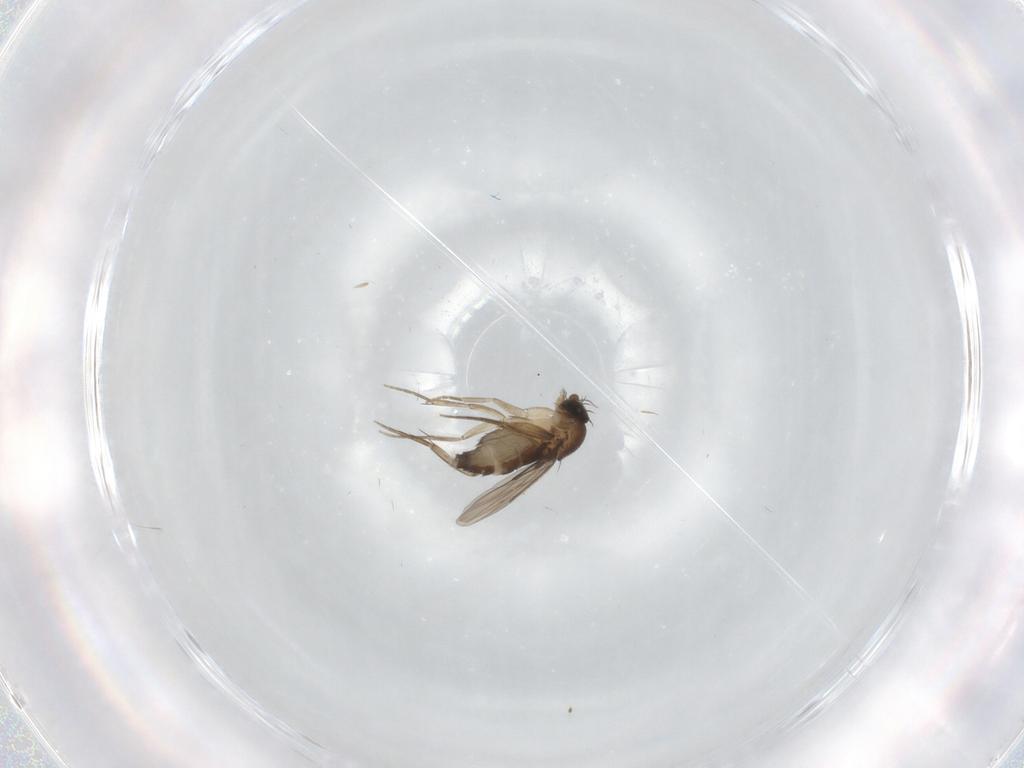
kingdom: Animalia
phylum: Arthropoda
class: Insecta
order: Diptera
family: Phoridae
